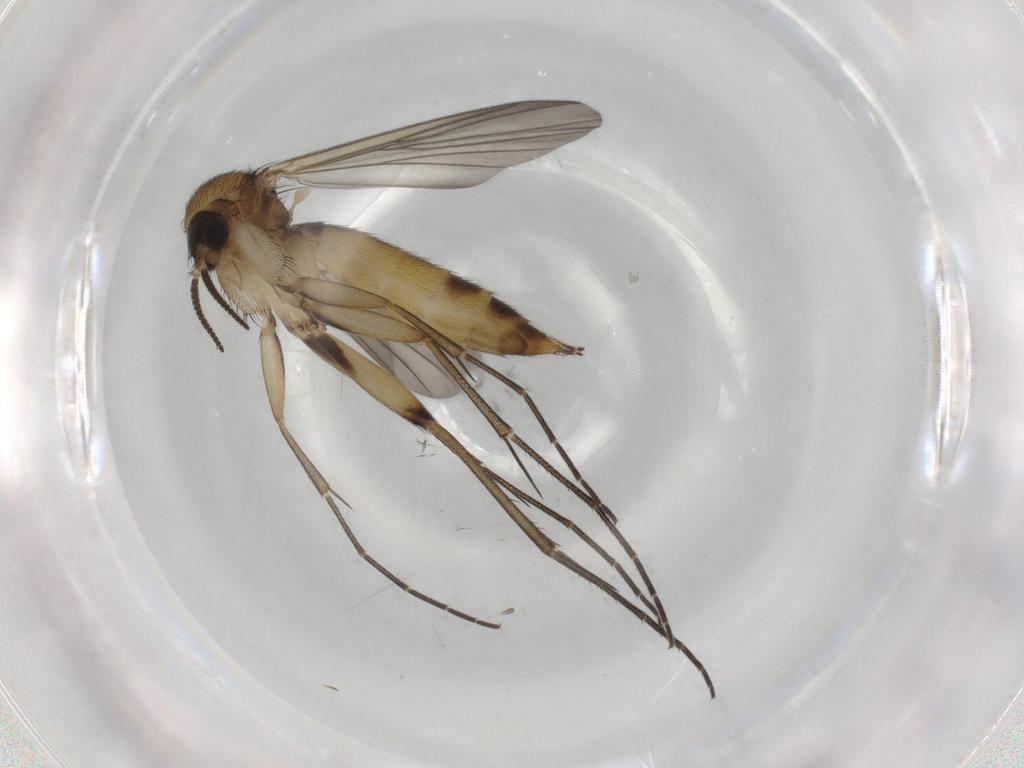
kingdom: Animalia
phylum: Arthropoda
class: Insecta
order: Diptera
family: Mycetophilidae
